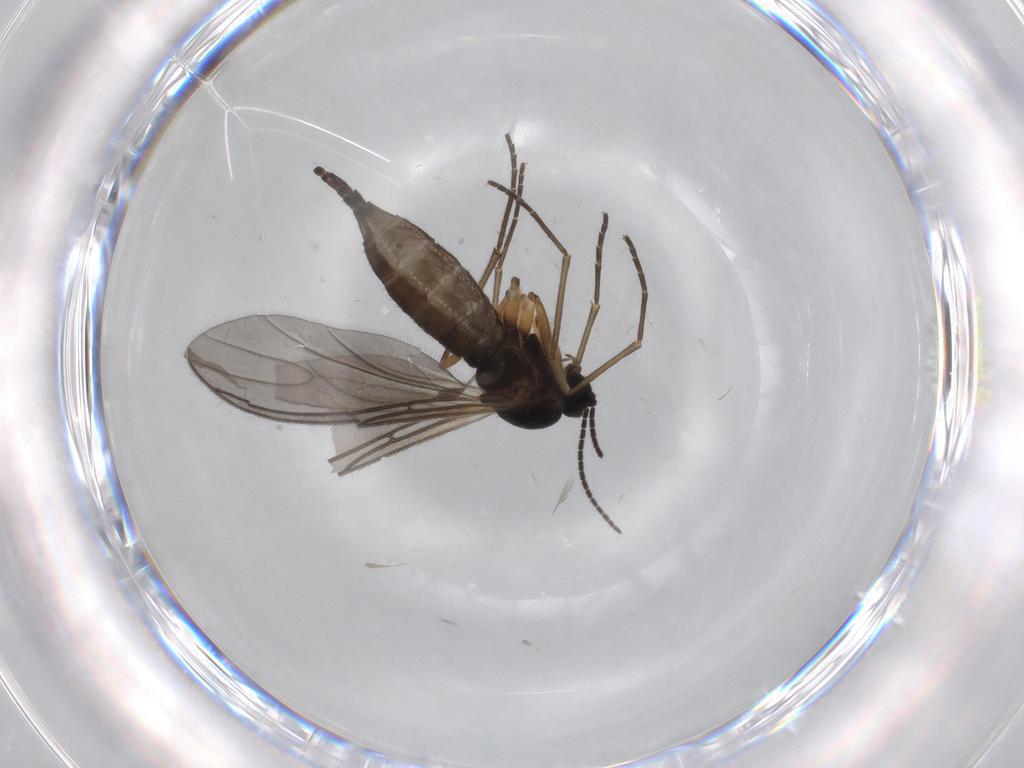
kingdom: Animalia
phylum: Arthropoda
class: Insecta
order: Diptera
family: Sciaridae
